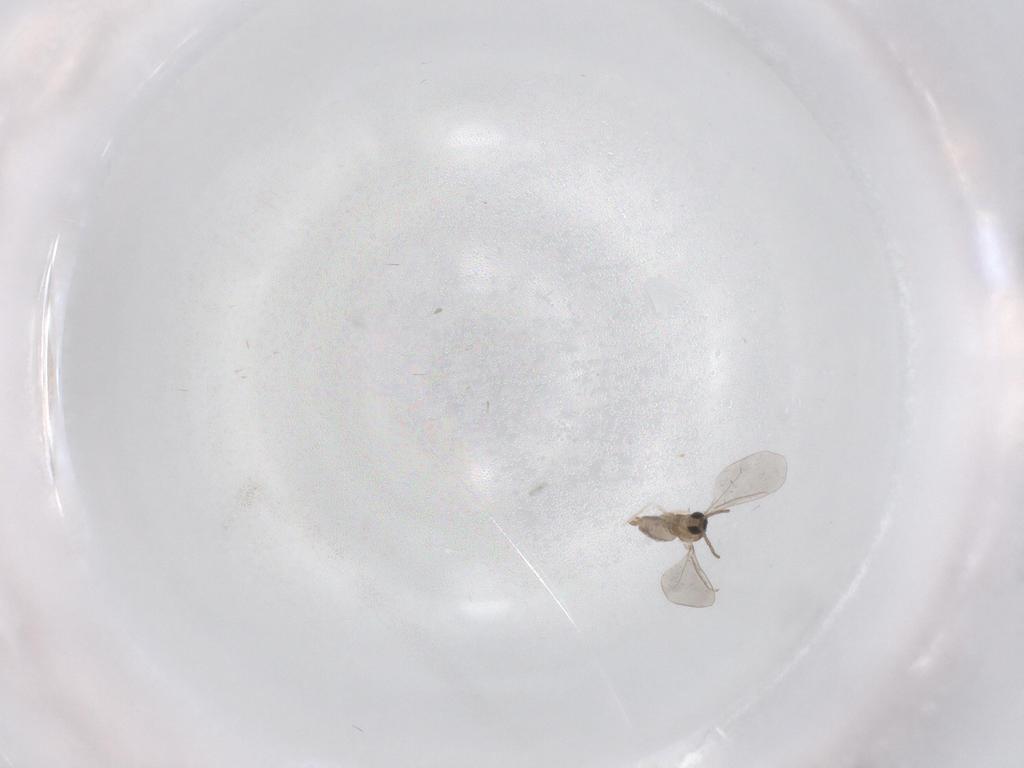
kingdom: Animalia
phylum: Arthropoda
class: Insecta
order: Diptera
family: Cecidomyiidae
